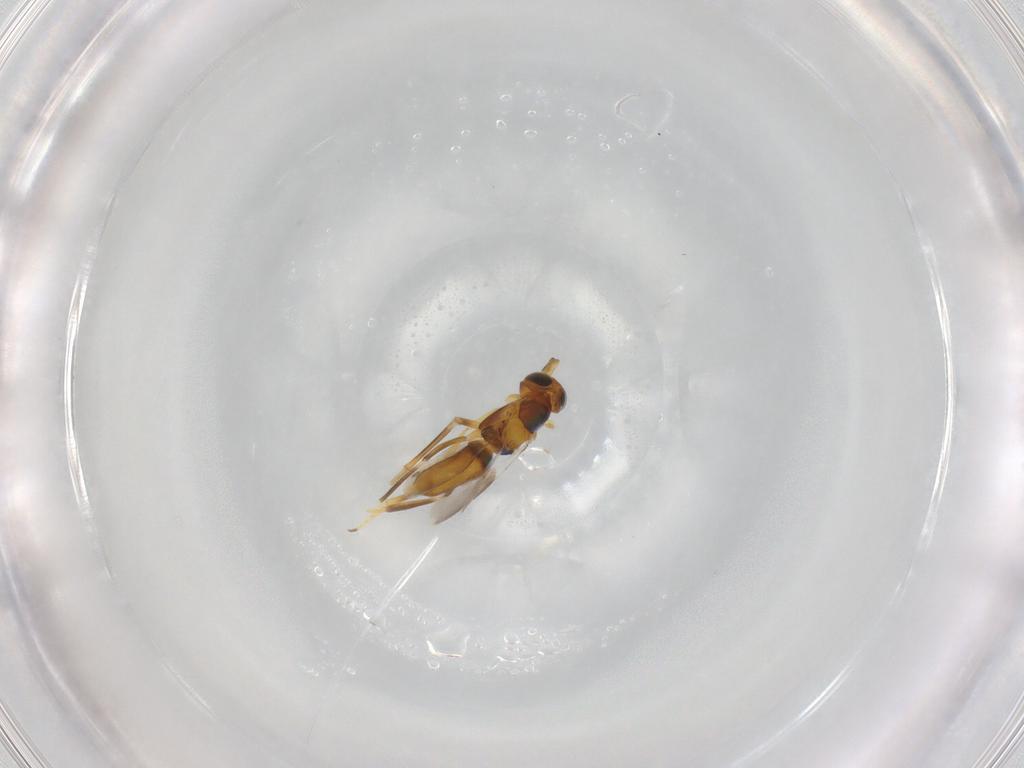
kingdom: Animalia
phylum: Arthropoda
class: Insecta
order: Hymenoptera
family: Encyrtidae
